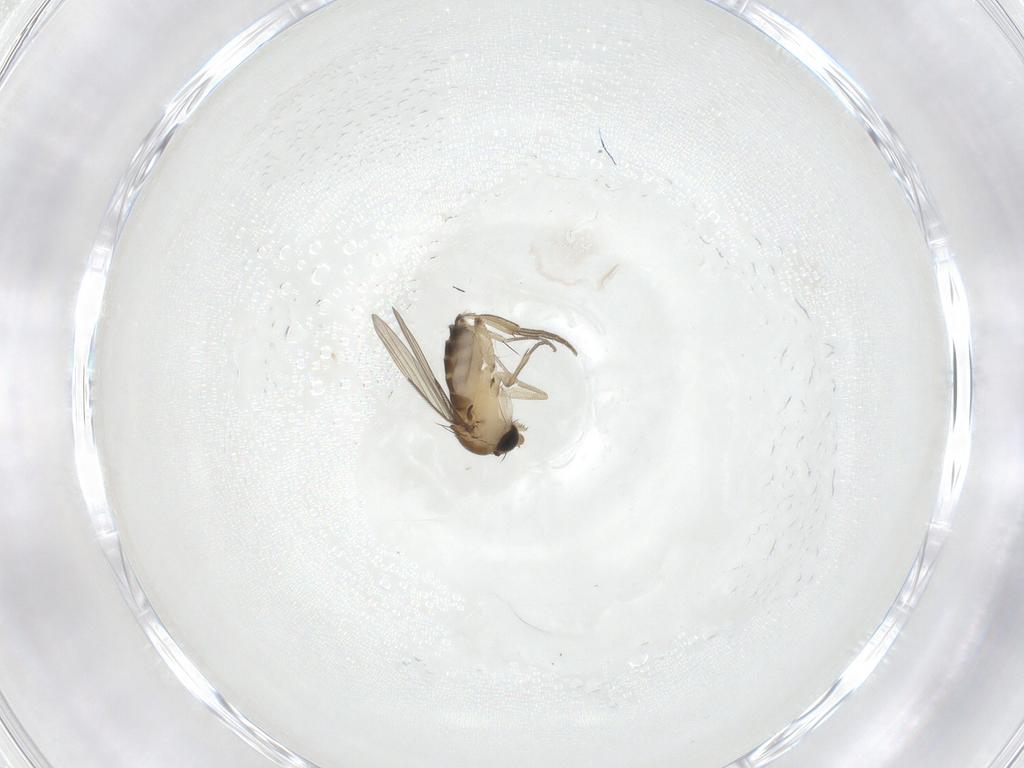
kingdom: Animalia
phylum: Arthropoda
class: Insecta
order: Diptera
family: Phoridae
